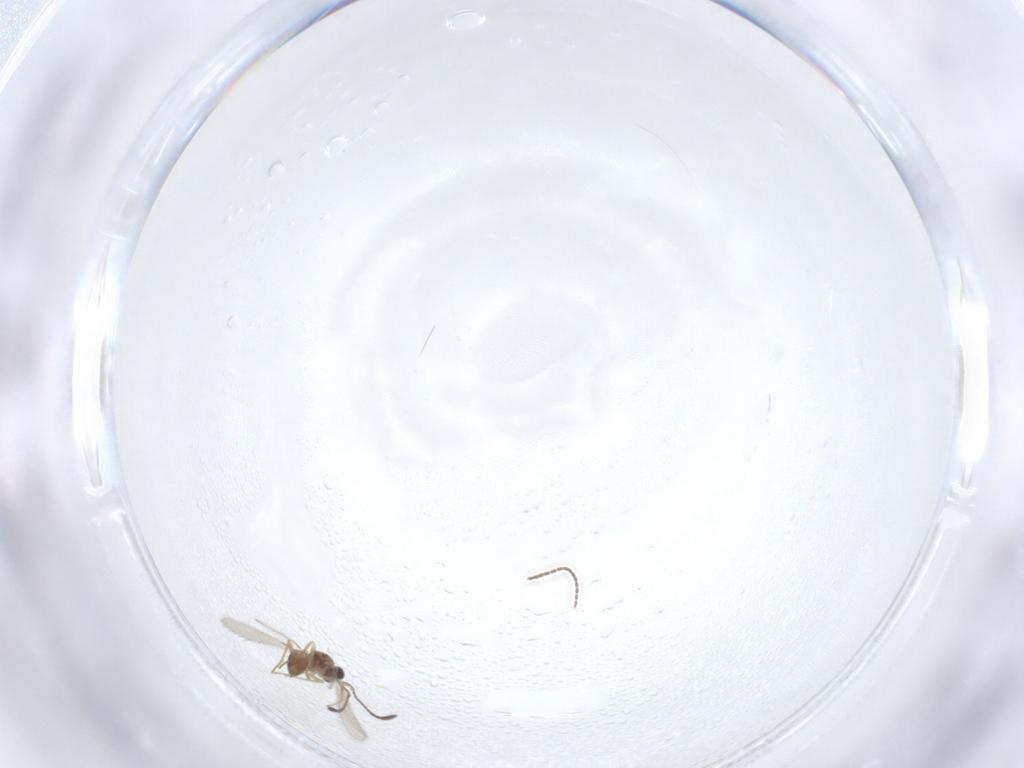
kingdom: Animalia
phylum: Arthropoda
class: Insecta
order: Diptera
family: Sciaridae
